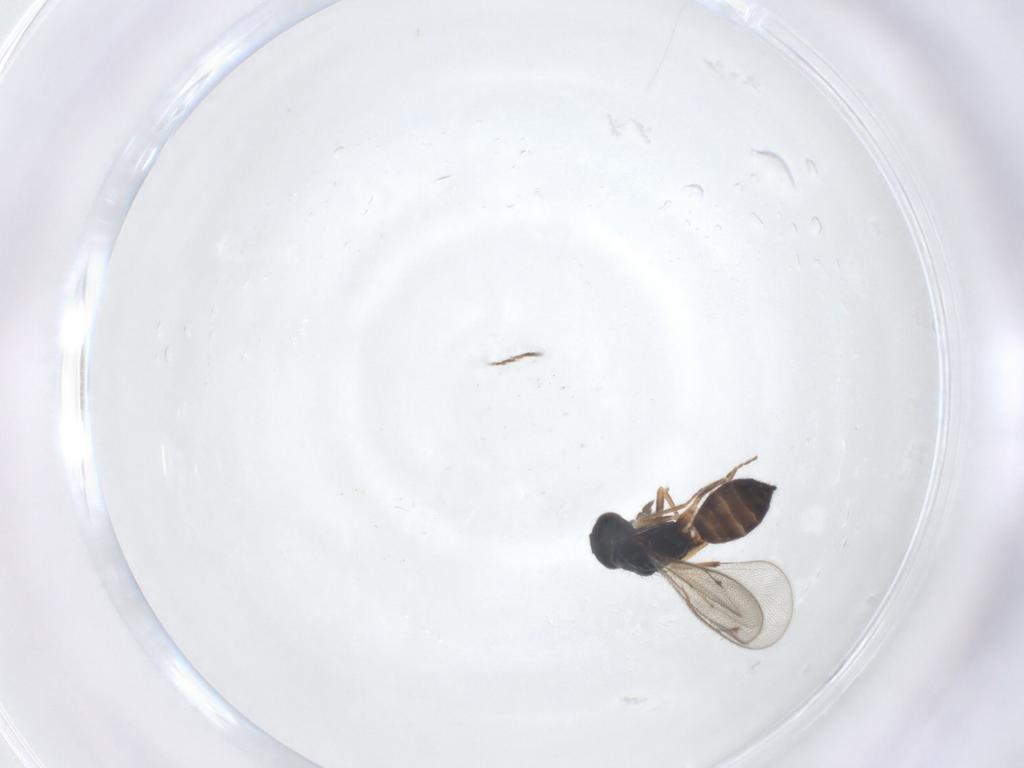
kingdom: Animalia
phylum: Arthropoda
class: Insecta
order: Hymenoptera
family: Eulophidae
